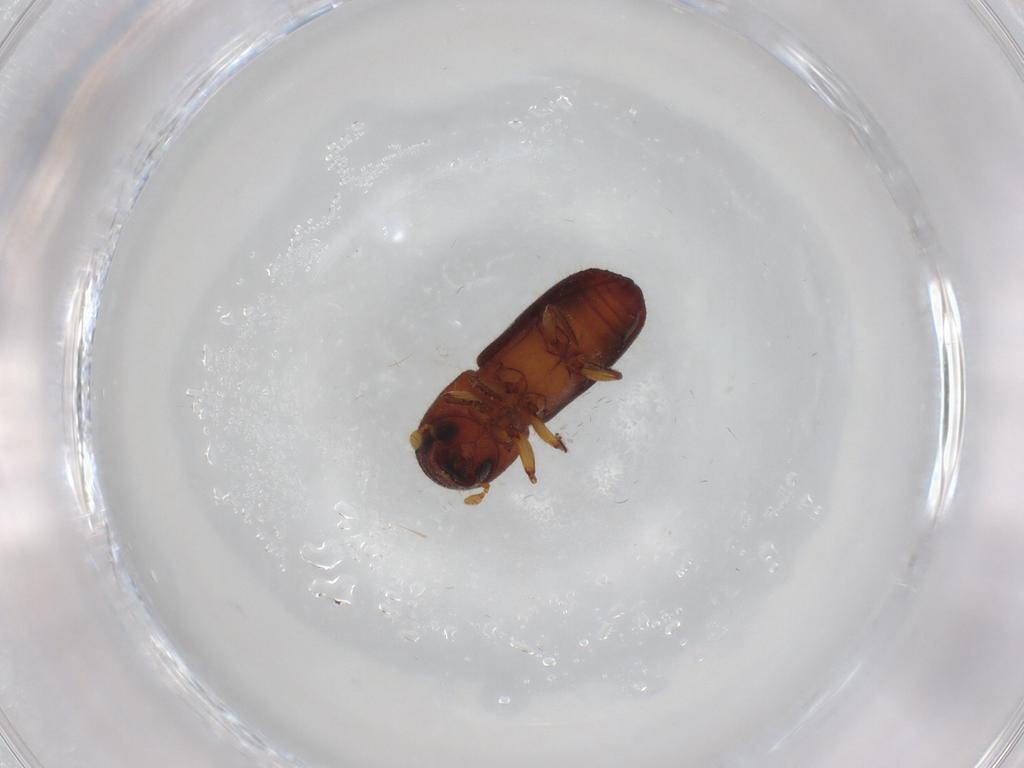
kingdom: Animalia
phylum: Arthropoda
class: Insecta
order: Coleoptera
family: Curculionidae
